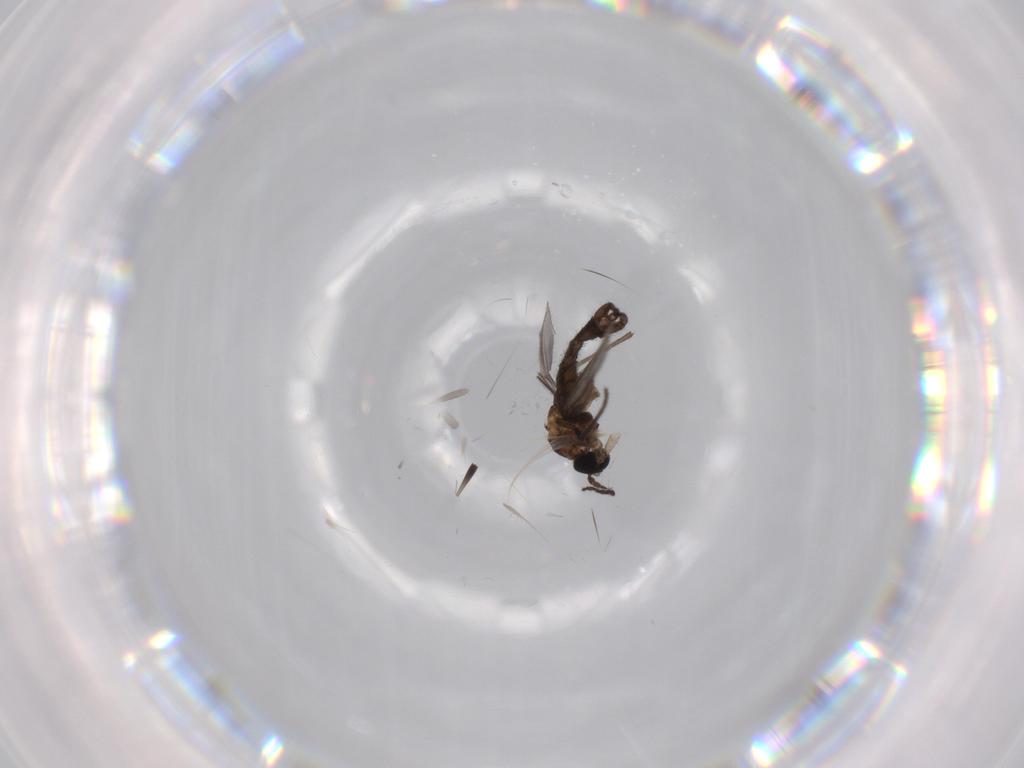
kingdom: Animalia
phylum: Arthropoda
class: Insecta
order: Diptera
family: Sciaridae
